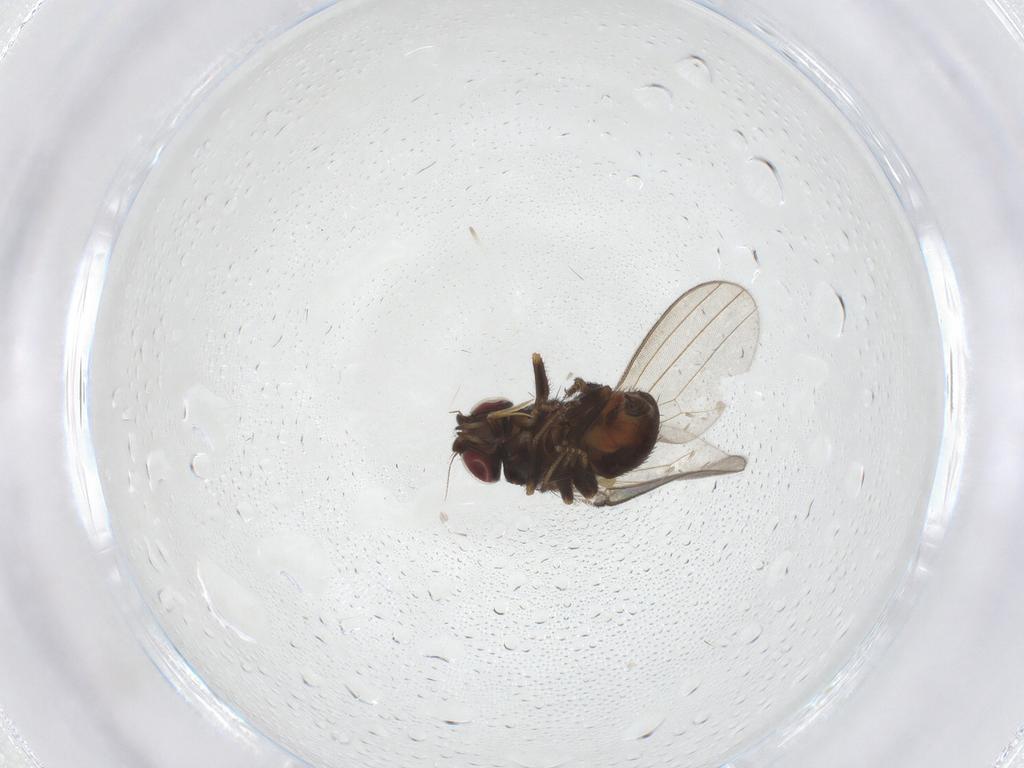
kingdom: Animalia
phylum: Arthropoda
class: Insecta
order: Diptera
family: Milichiidae
